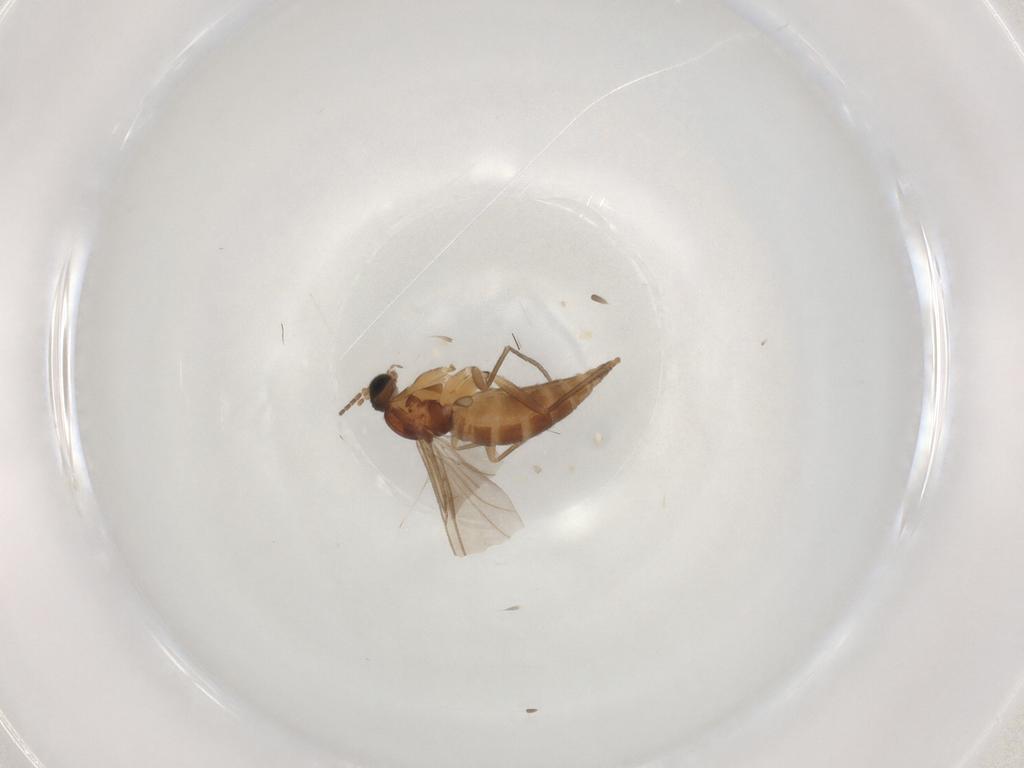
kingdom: Animalia
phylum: Arthropoda
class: Insecta
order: Diptera
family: Sciaridae
